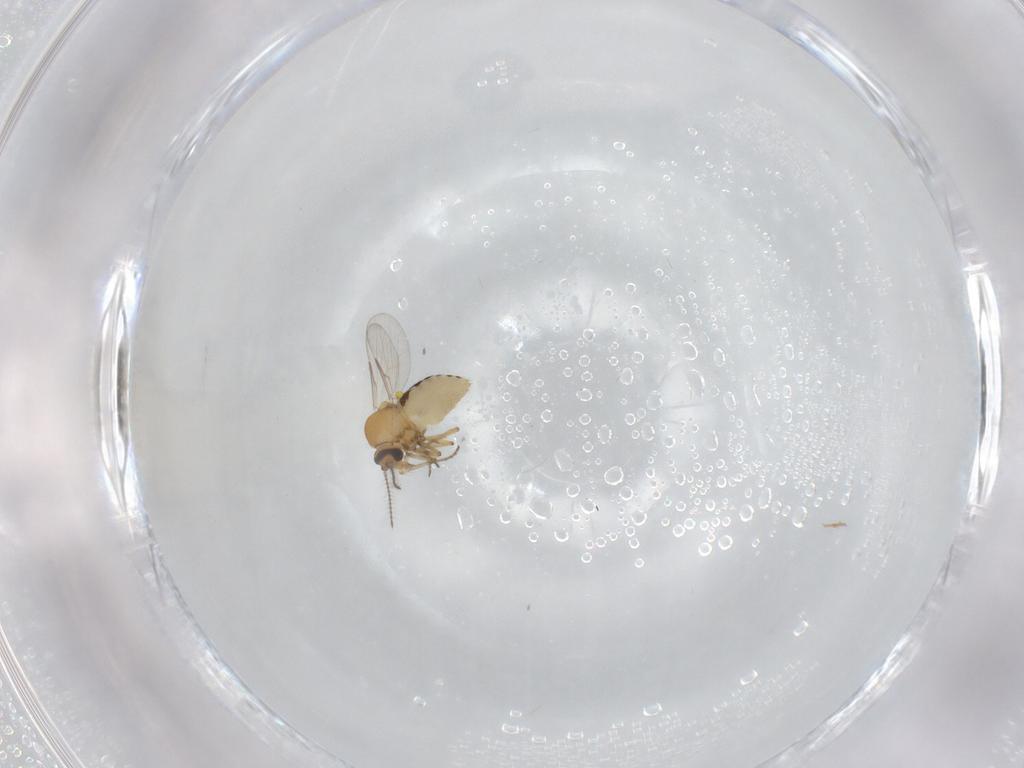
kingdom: Animalia
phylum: Arthropoda
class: Insecta
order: Diptera
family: Ceratopogonidae
